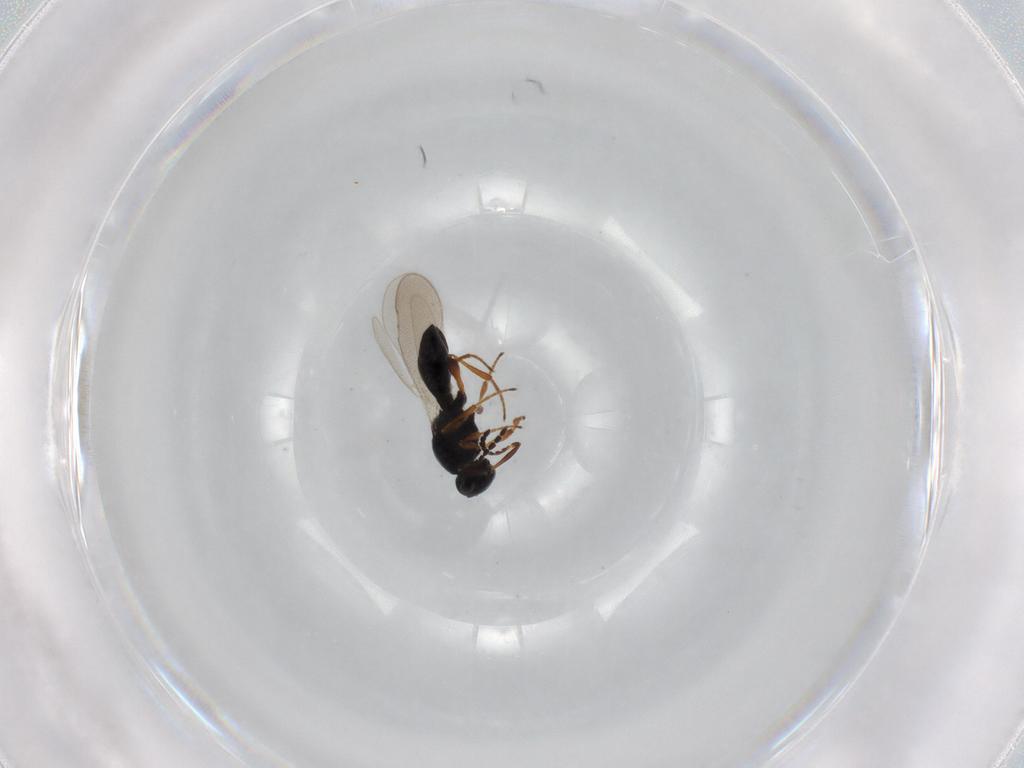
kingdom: Animalia
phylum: Arthropoda
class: Insecta
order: Hymenoptera
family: Platygastridae
